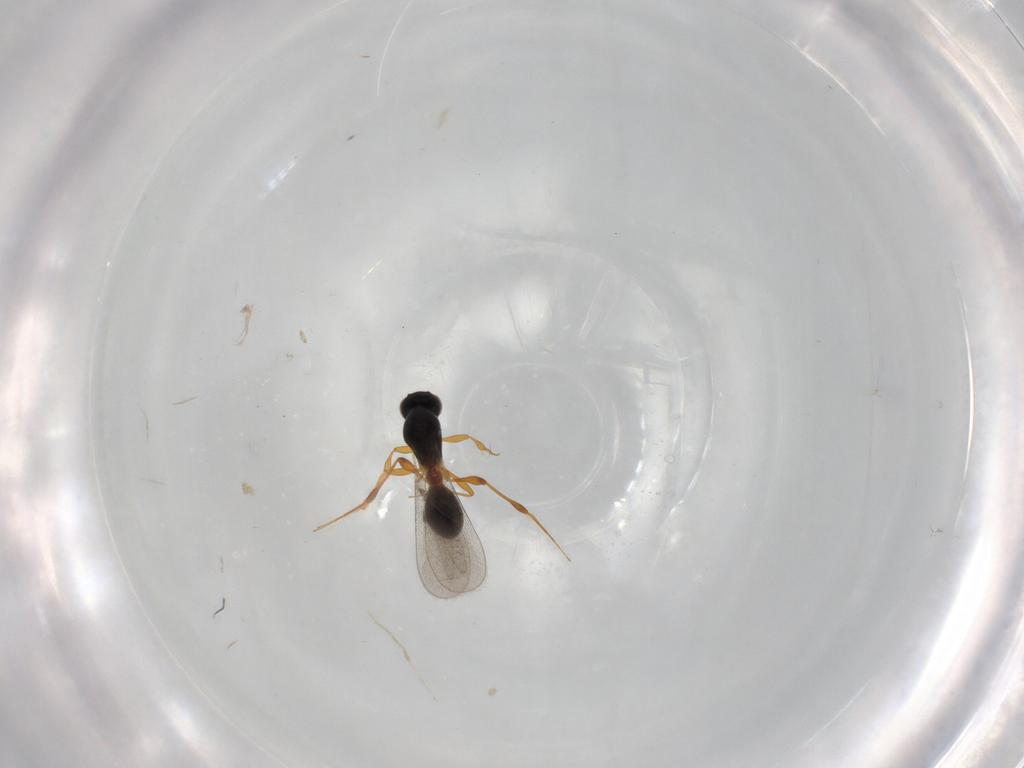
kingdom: Animalia
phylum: Arthropoda
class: Insecta
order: Hymenoptera
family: Platygastridae
